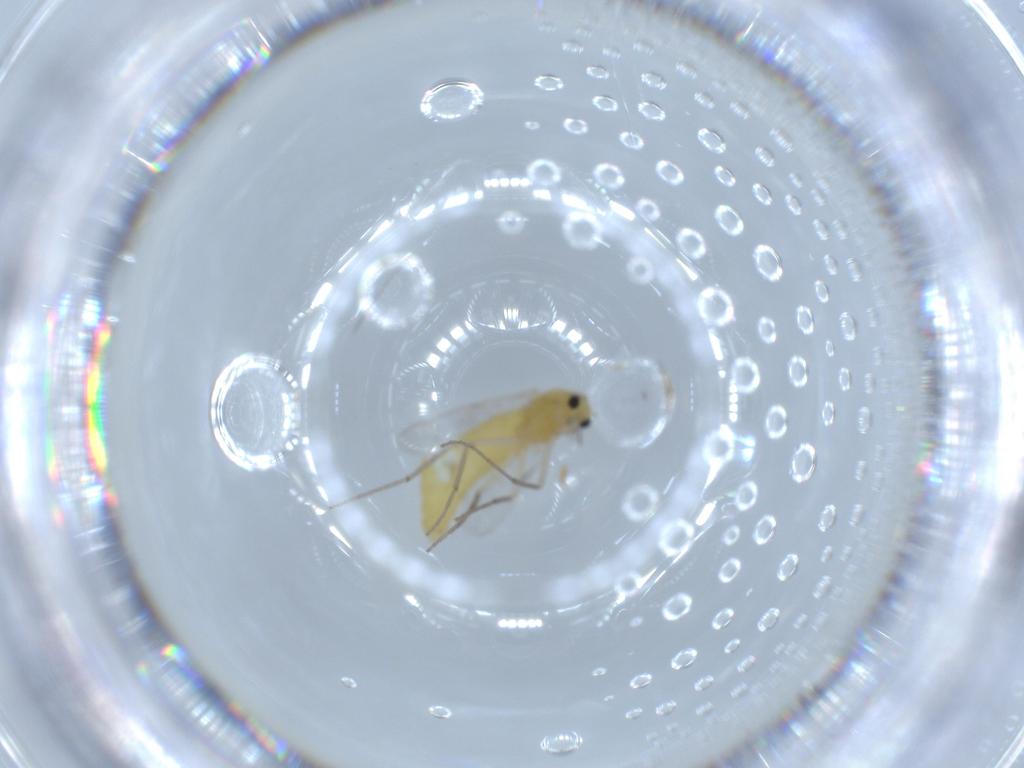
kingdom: Animalia
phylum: Arthropoda
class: Insecta
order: Diptera
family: Chironomidae
